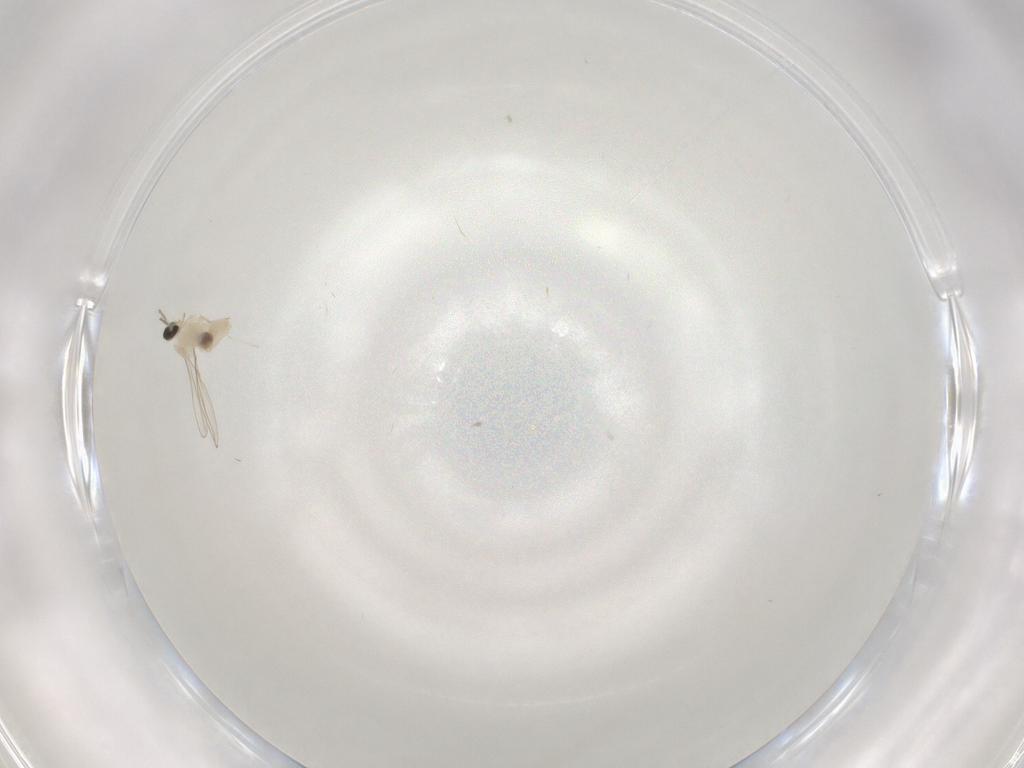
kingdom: Animalia
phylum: Arthropoda
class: Insecta
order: Diptera
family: Cecidomyiidae
